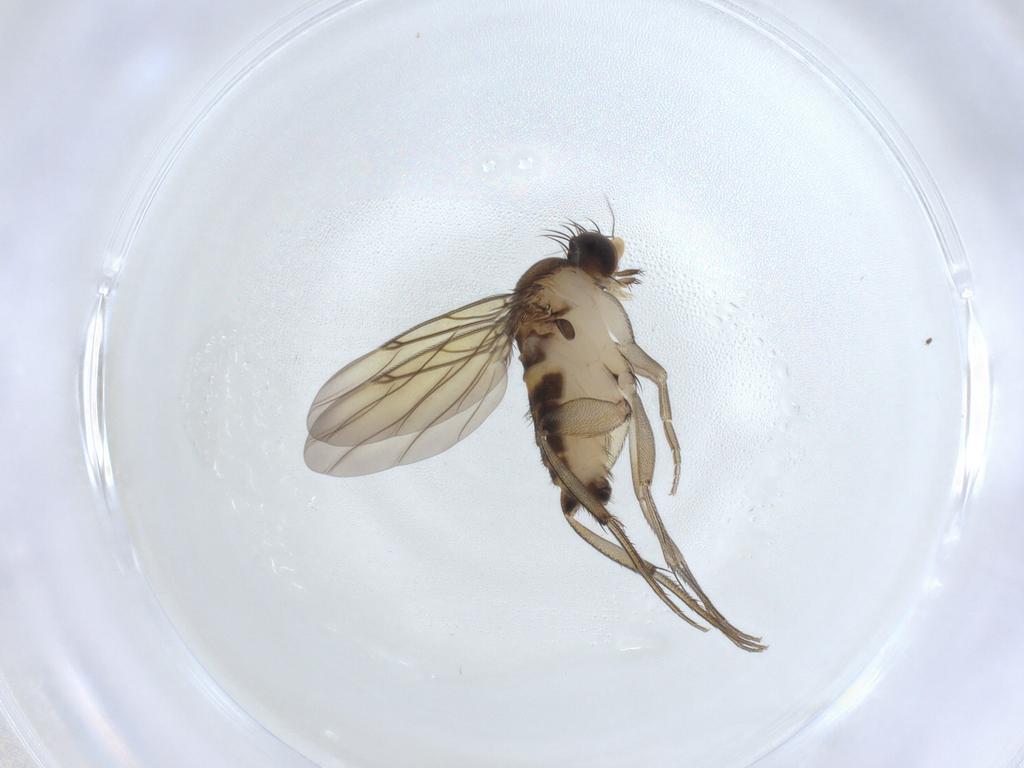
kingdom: Animalia
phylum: Arthropoda
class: Insecta
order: Diptera
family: Phoridae
